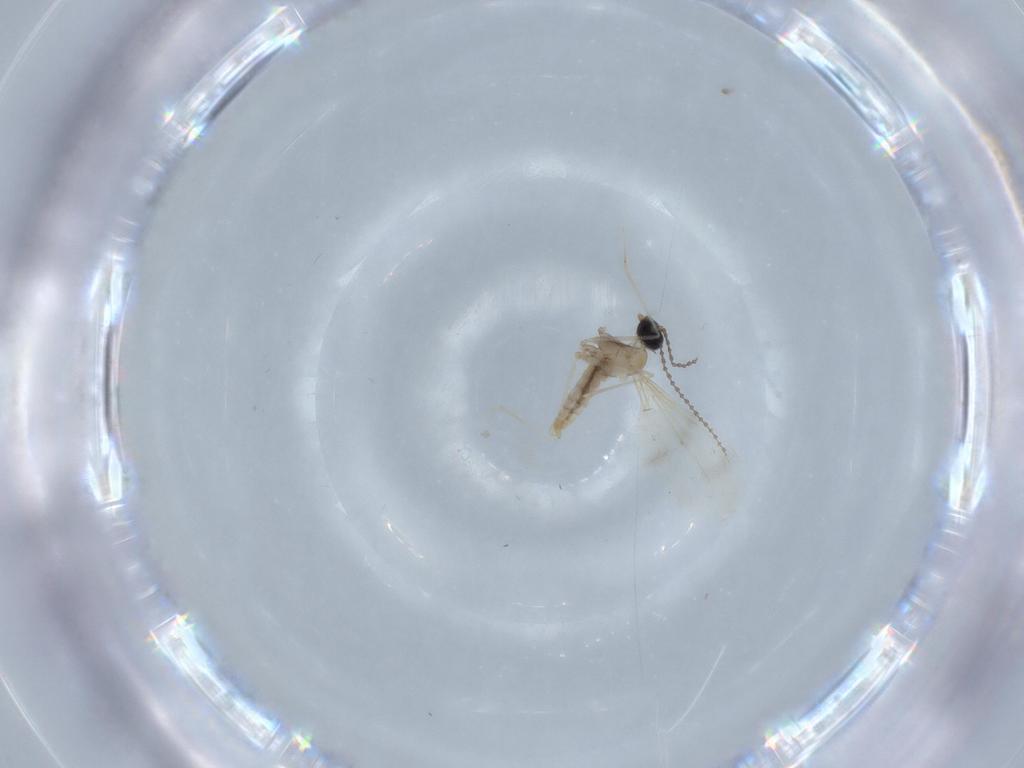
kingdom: Animalia
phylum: Arthropoda
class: Insecta
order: Diptera
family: Cecidomyiidae
